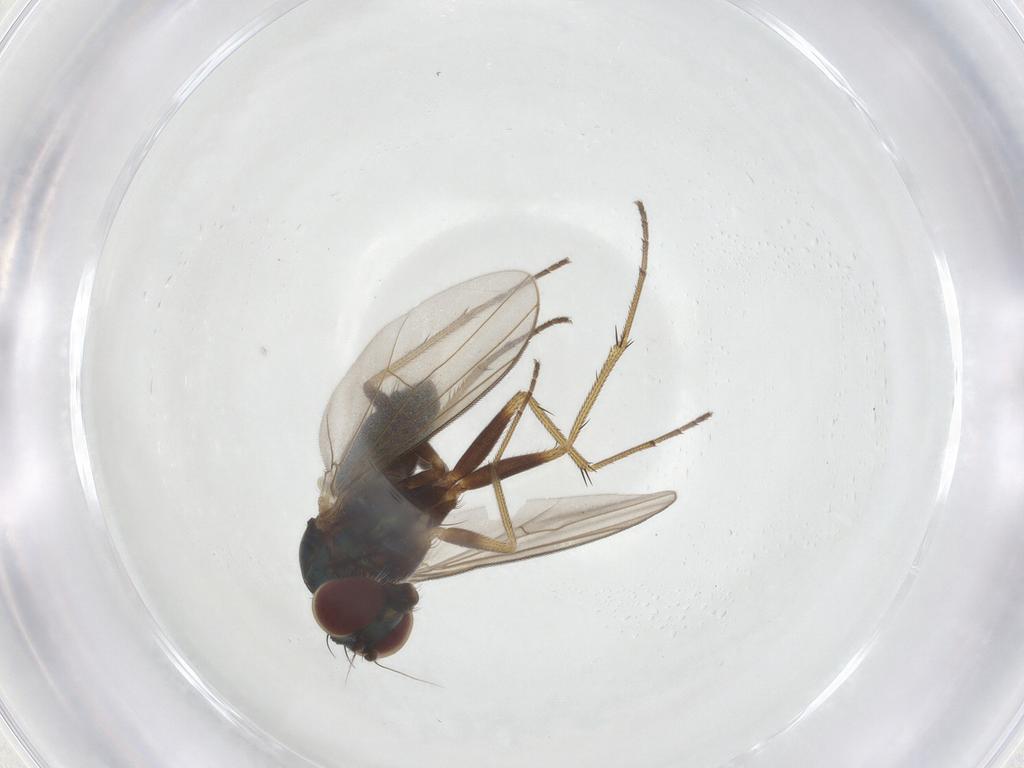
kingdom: Animalia
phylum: Arthropoda
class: Insecta
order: Diptera
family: Dolichopodidae
